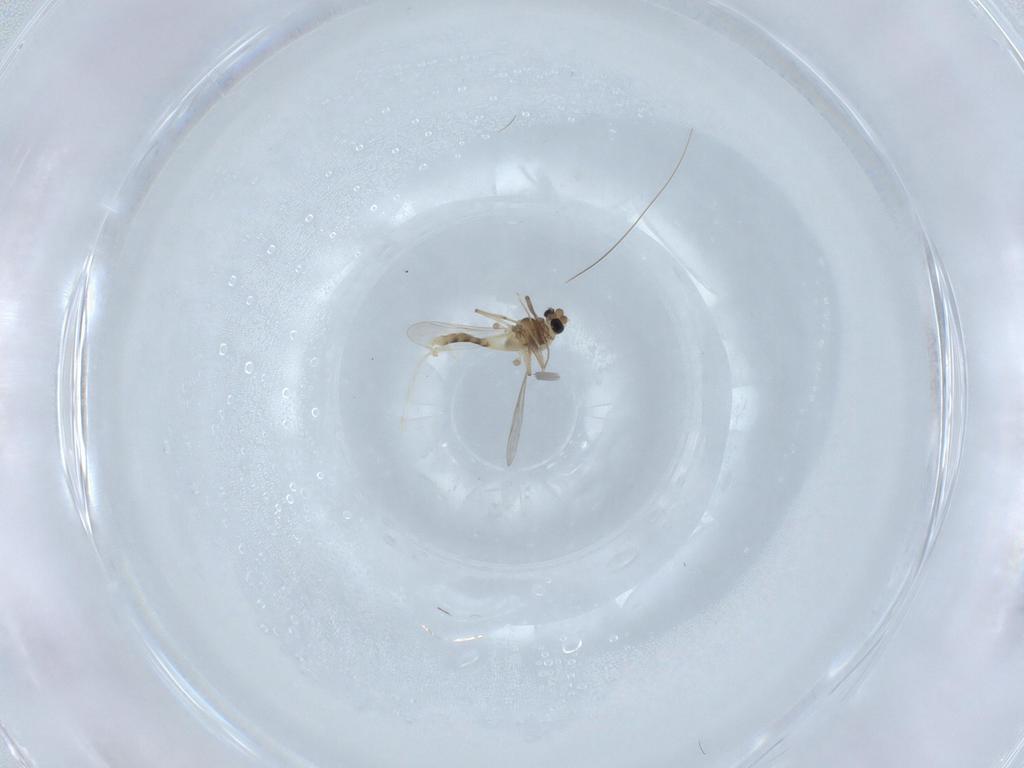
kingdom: Animalia
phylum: Arthropoda
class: Insecta
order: Diptera
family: Chironomidae
